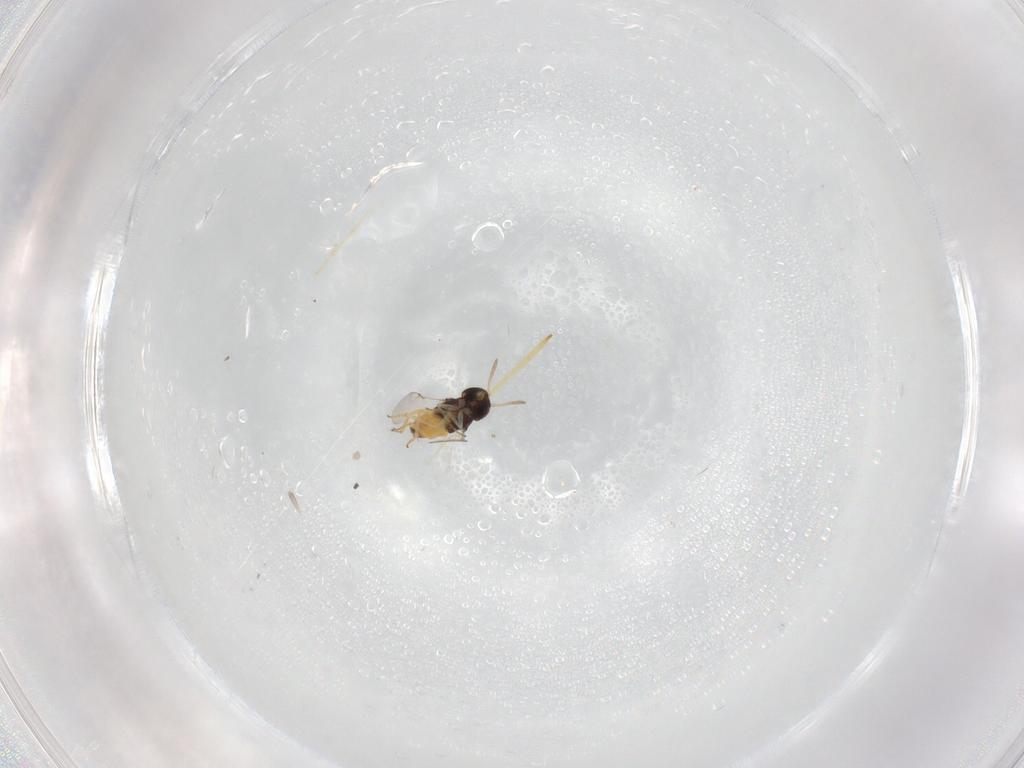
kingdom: Animalia
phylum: Arthropoda
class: Insecta
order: Hymenoptera
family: Encyrtidae
